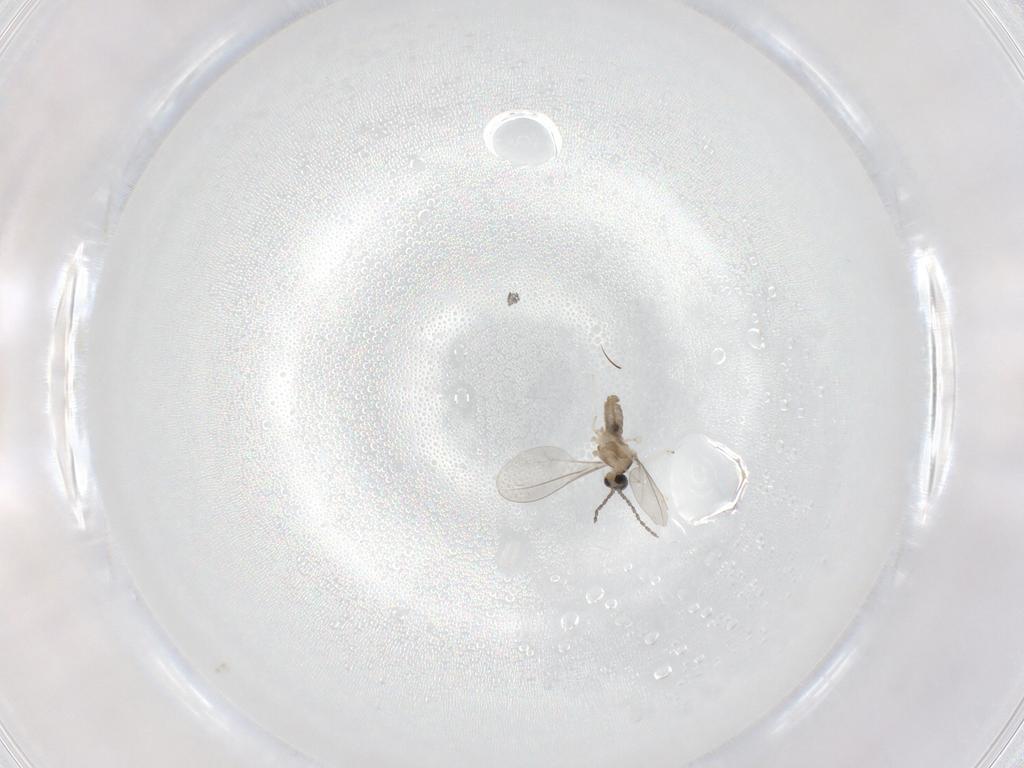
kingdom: Animalia
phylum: Arthropoda
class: Insecta
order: Diptera
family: Phoridae
